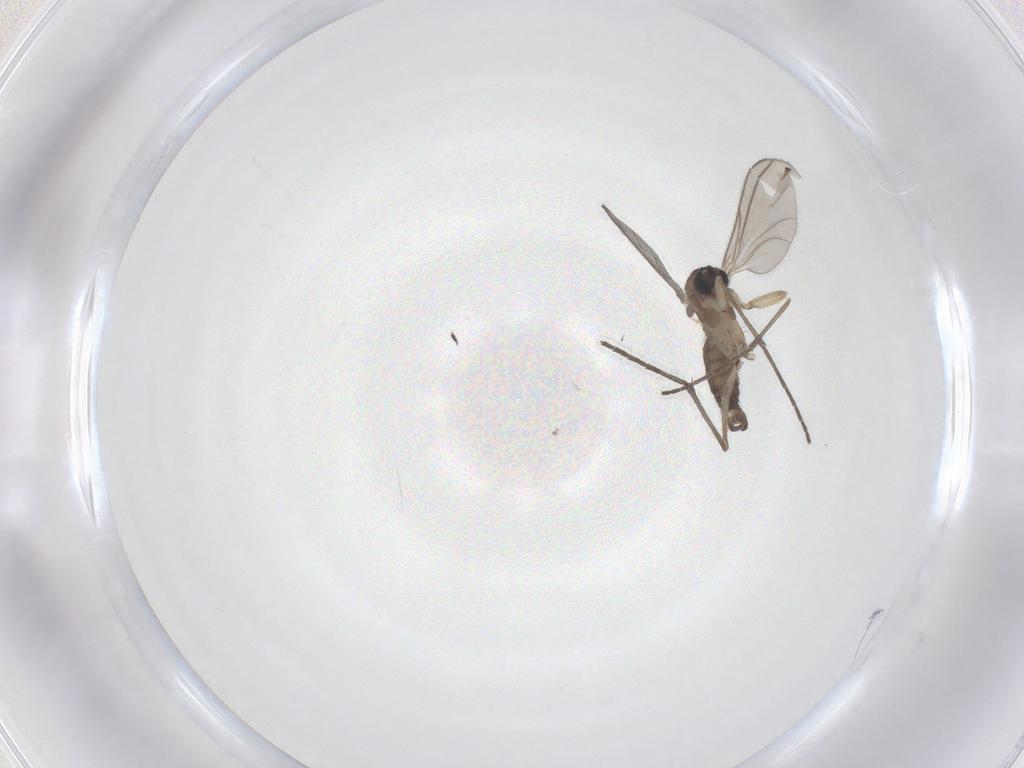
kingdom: Animalia
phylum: Arthropoda
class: Insecta
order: Diptera
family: Sciaridae
